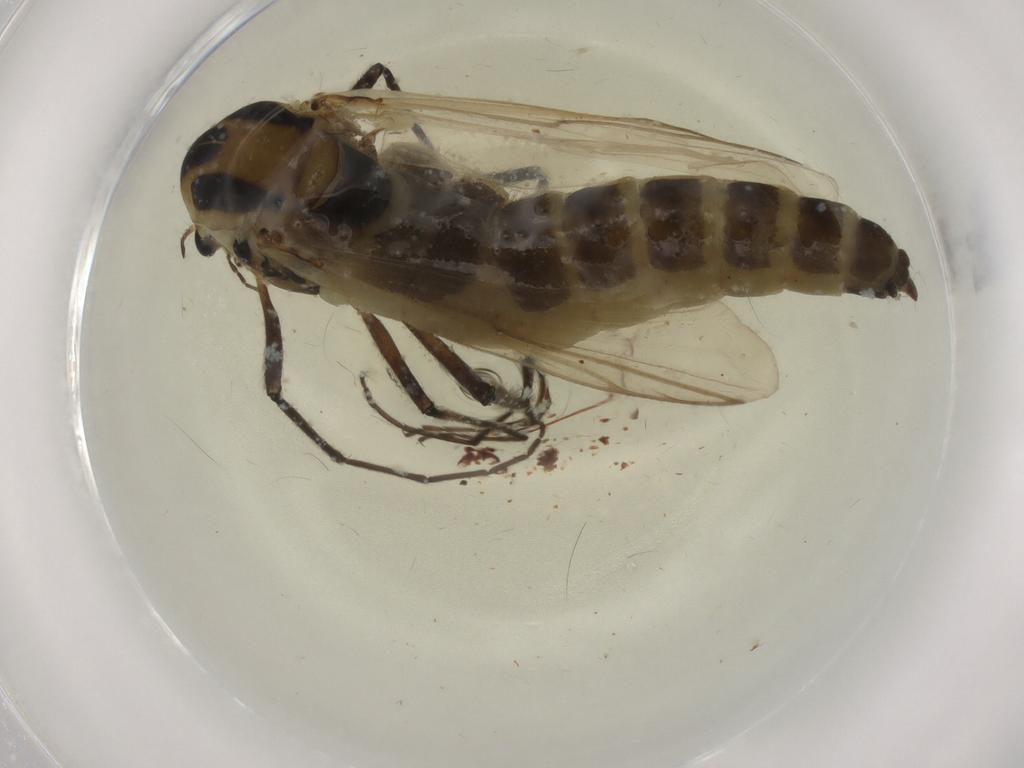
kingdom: Animalia
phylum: Arthropoda
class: Insecta
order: Diptera
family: Chironomidae
